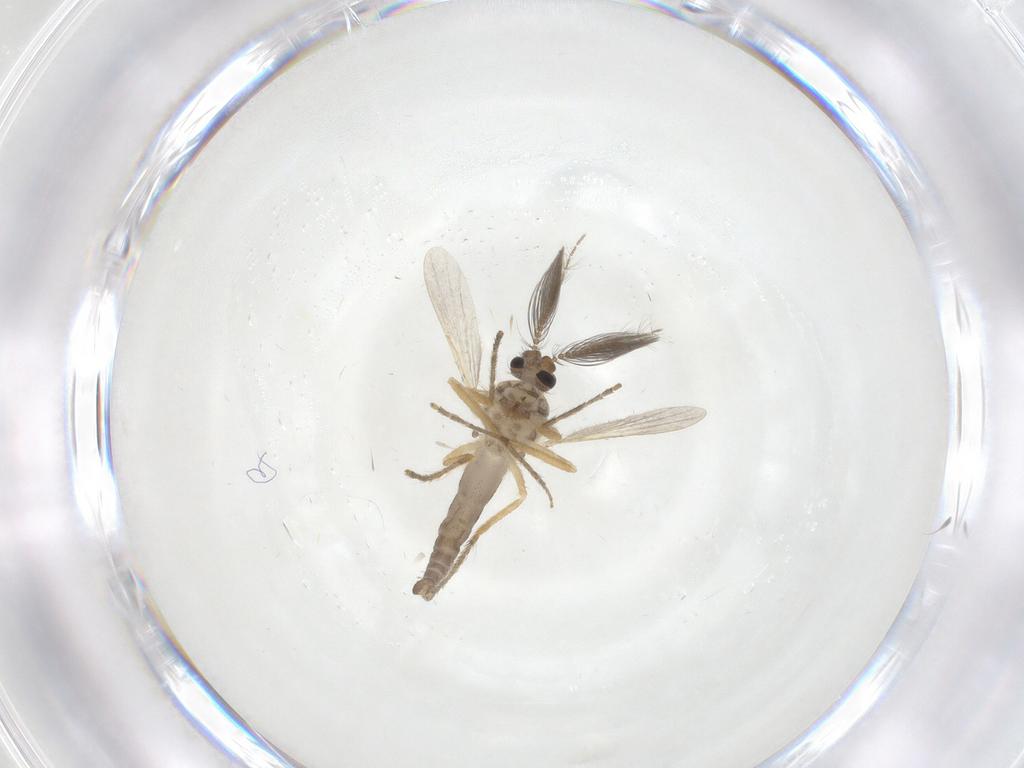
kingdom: Animalia
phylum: Arthropoda
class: Insecta
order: Diptera
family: Ceratopogonidae
